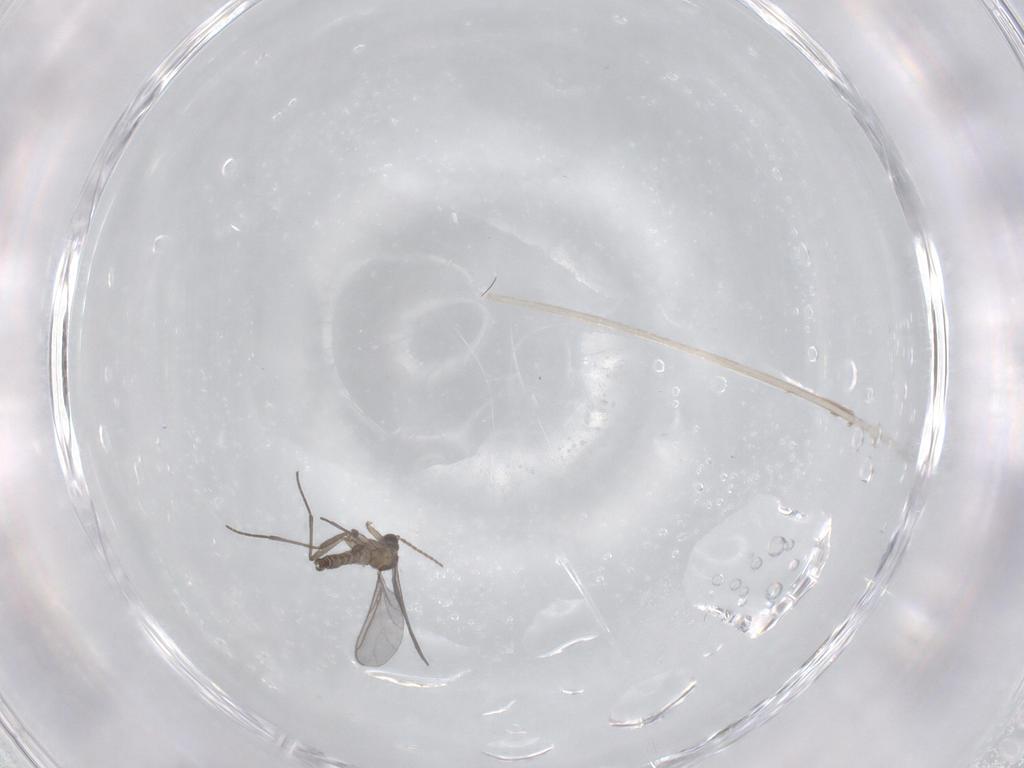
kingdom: Animalia
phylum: Arthropoda
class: Insecta
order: Diptera
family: Sciaridae
